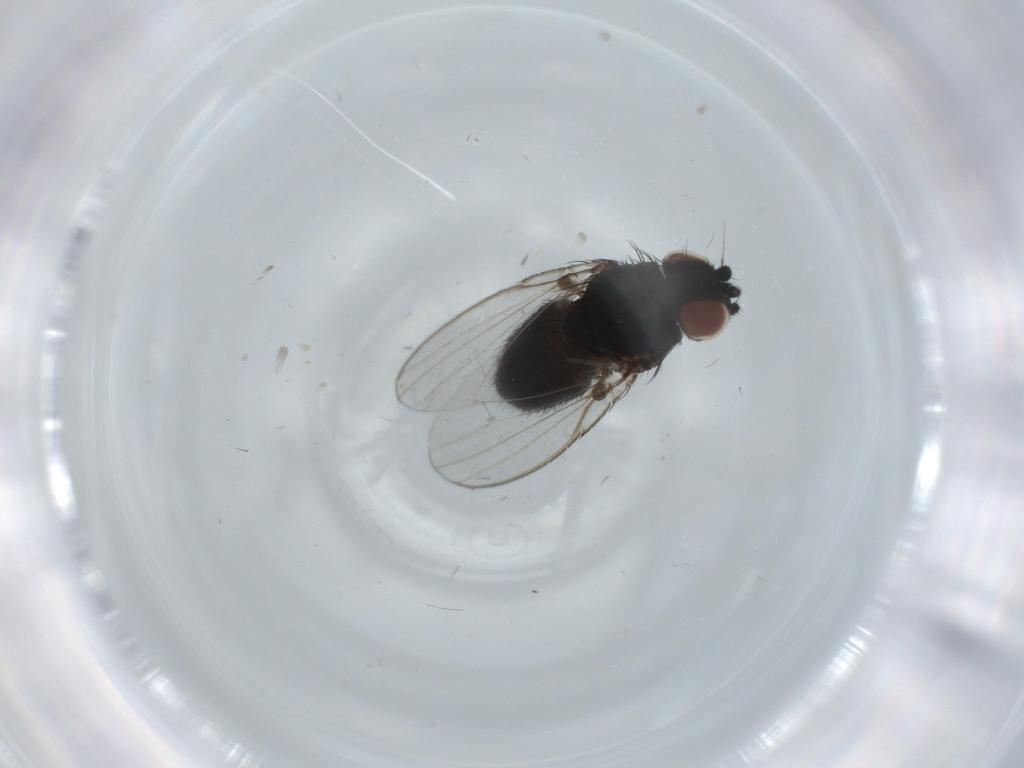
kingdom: Animalia
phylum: Arthropoda
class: Insecta
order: Diptera
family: Milichiidae
